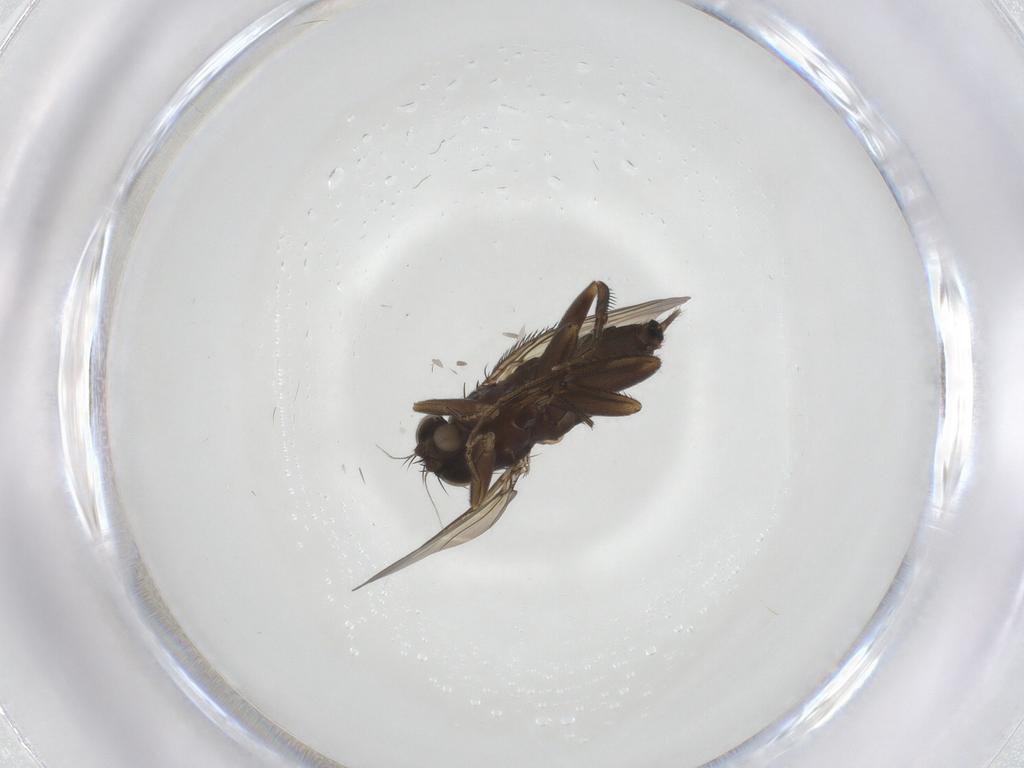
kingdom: Animalia
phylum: Arthropoda
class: Insecta
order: Diptera
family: Phoridae
